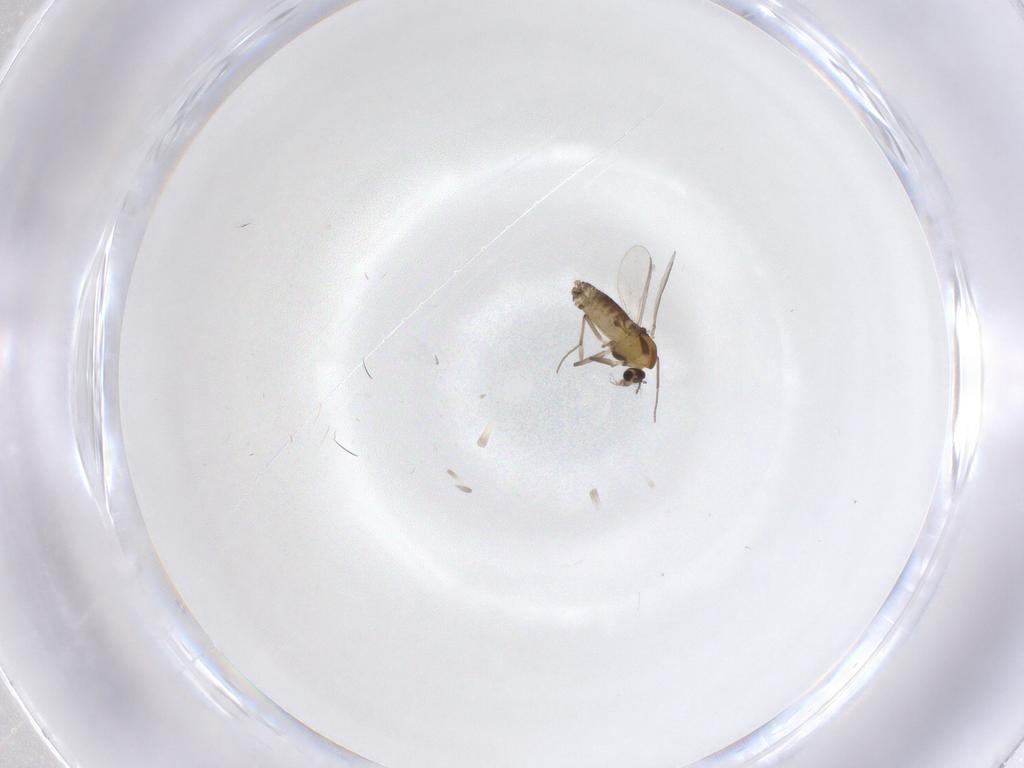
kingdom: Animalia
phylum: Arthropoda
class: Insecta
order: Diptera
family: Chironomidae
